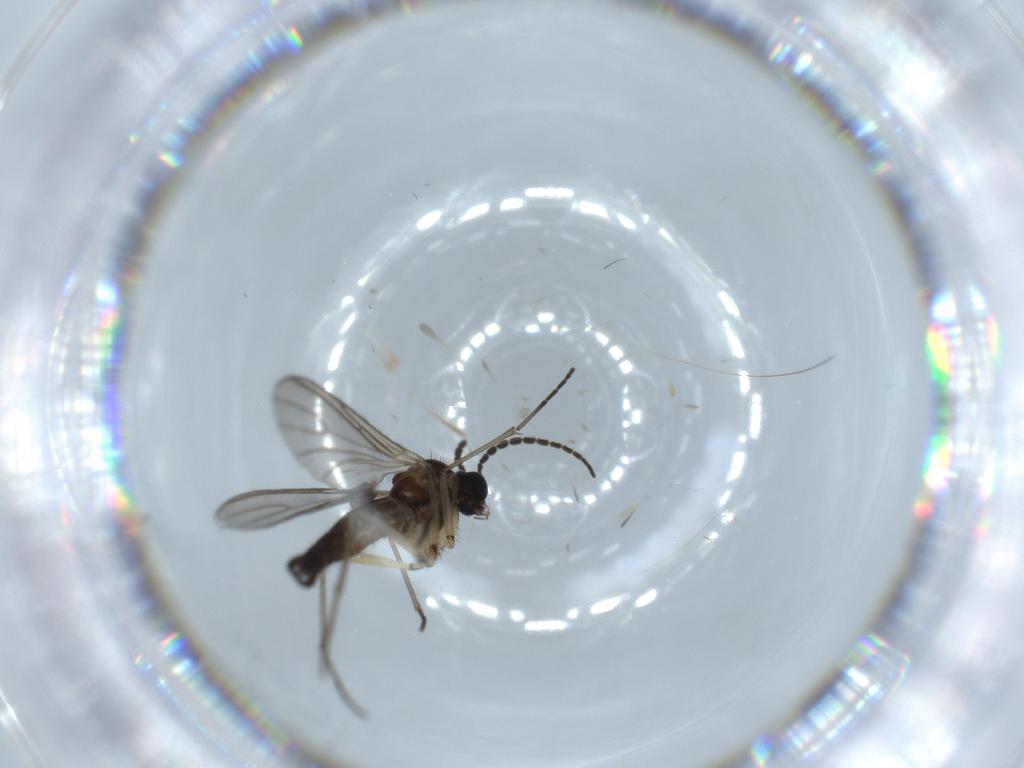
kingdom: Animalia
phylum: Arthropoda
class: Insecta
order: Diptera
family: Sciaridae
